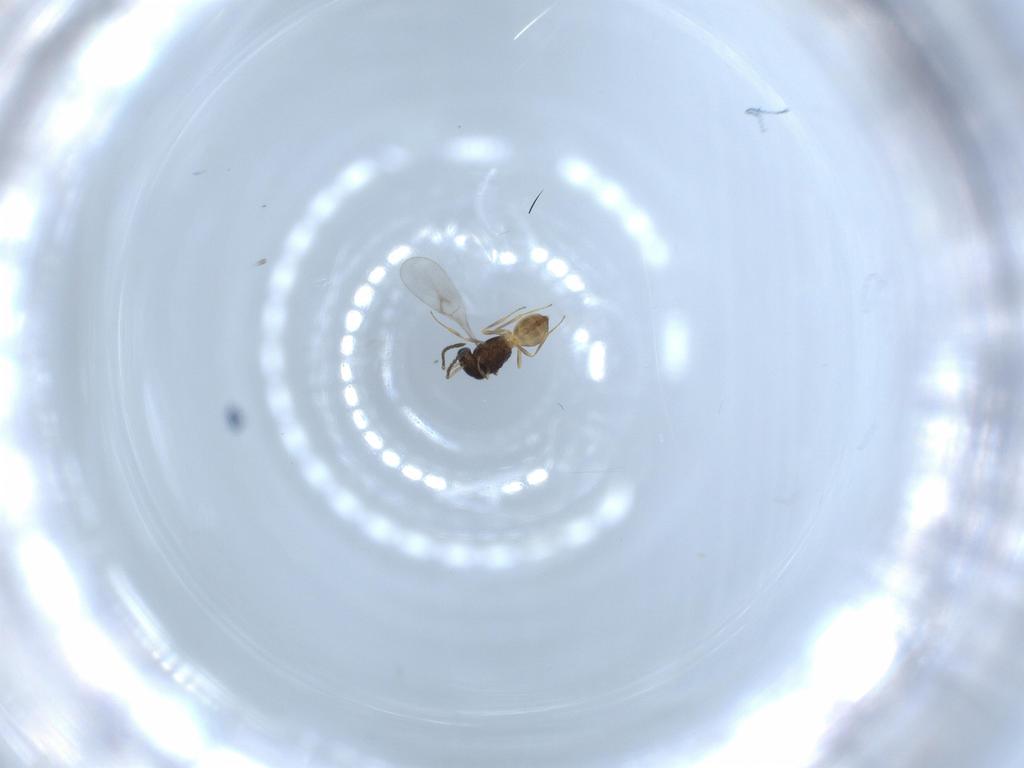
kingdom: Animalia
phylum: Arthropoda
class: Insecta
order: Hymenoptera
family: Scelionidae
